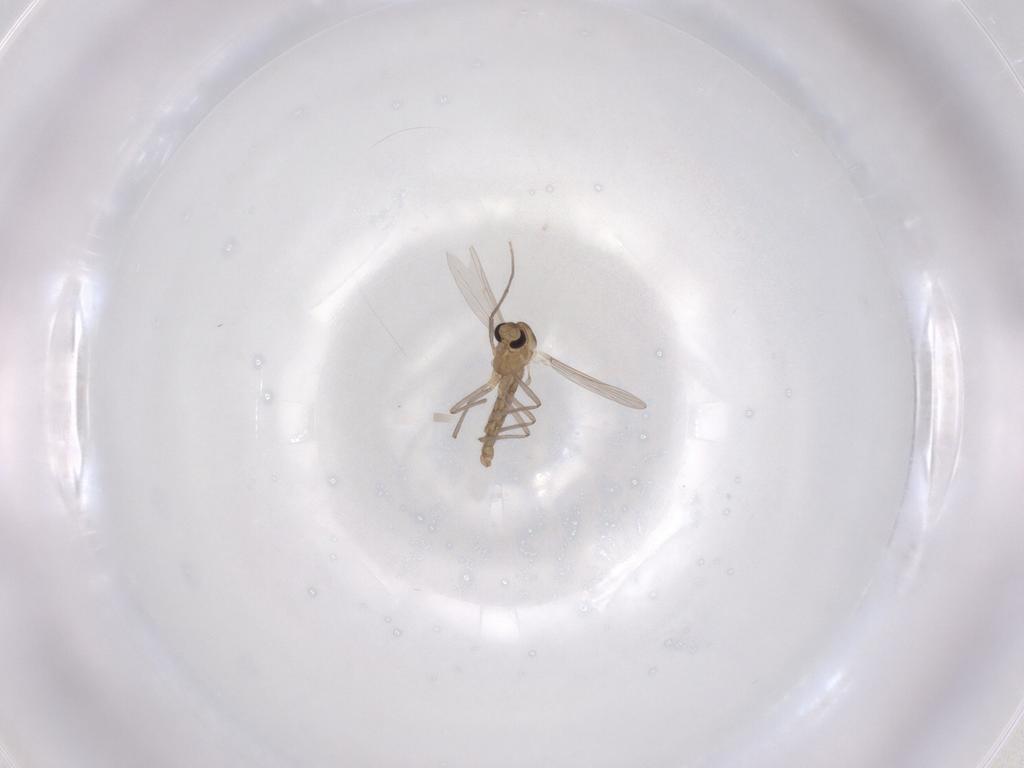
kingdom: Animalia
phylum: Arthropoda
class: Insecta
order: Diptera
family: Chironomidae
